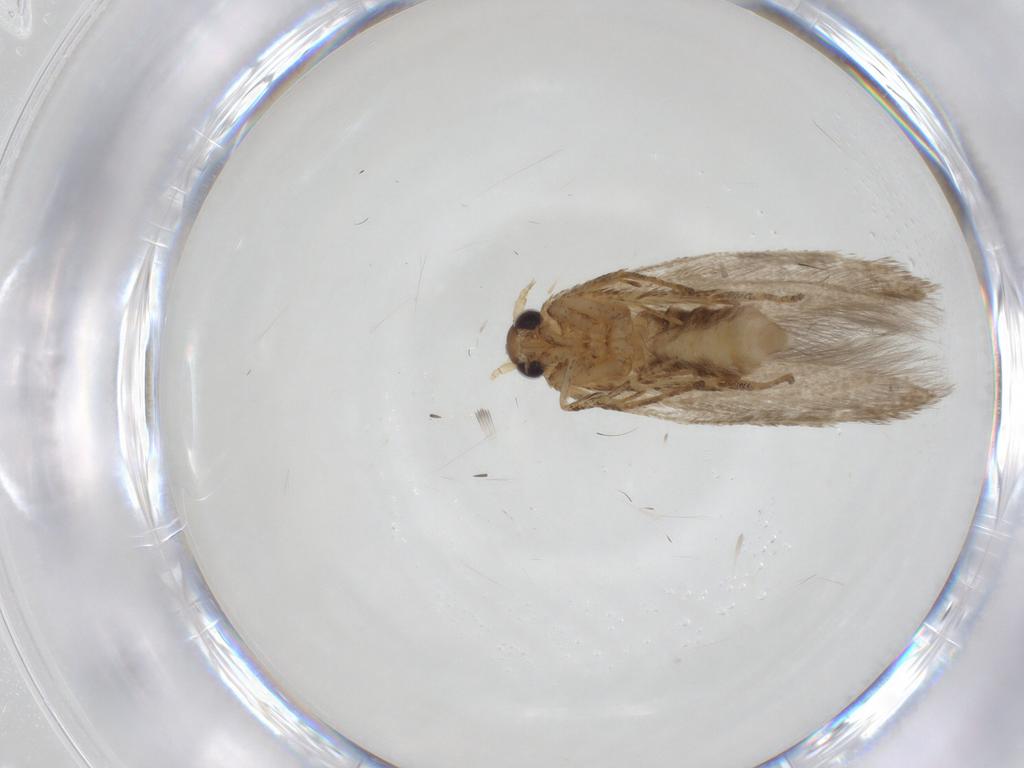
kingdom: Animalia
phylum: Arthropoda
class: Insecta
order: Lepidoptera
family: Blastobasidae
